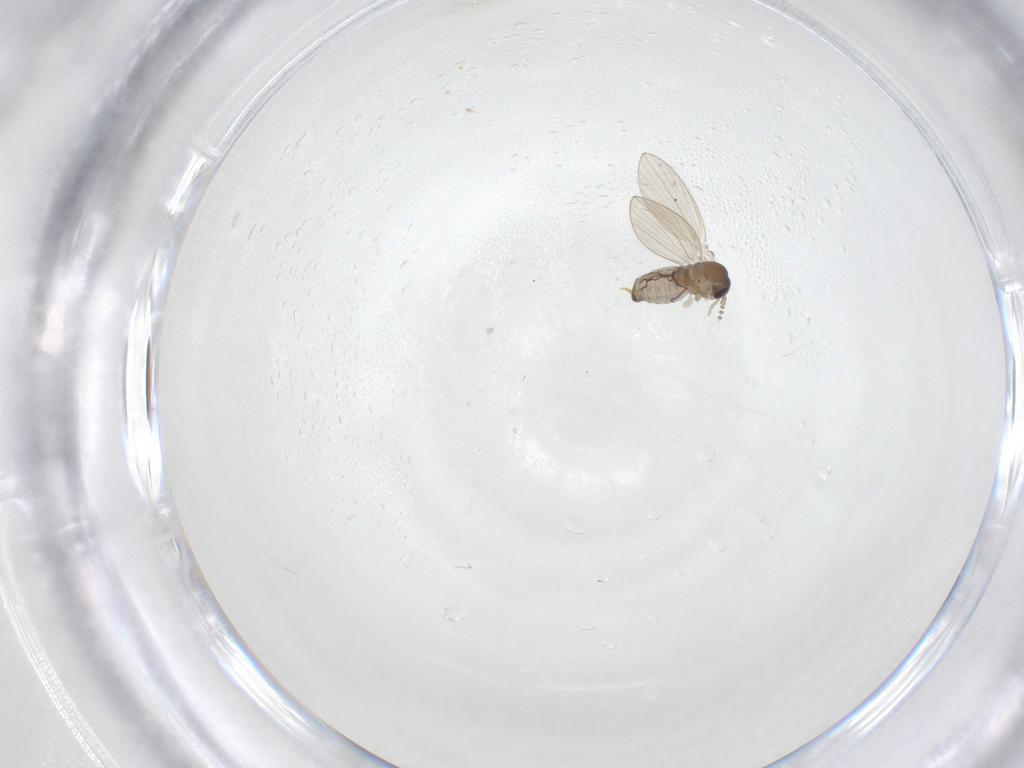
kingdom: Animalia
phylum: Arthropoda
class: Insecta
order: Diptera
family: Psychodidae
